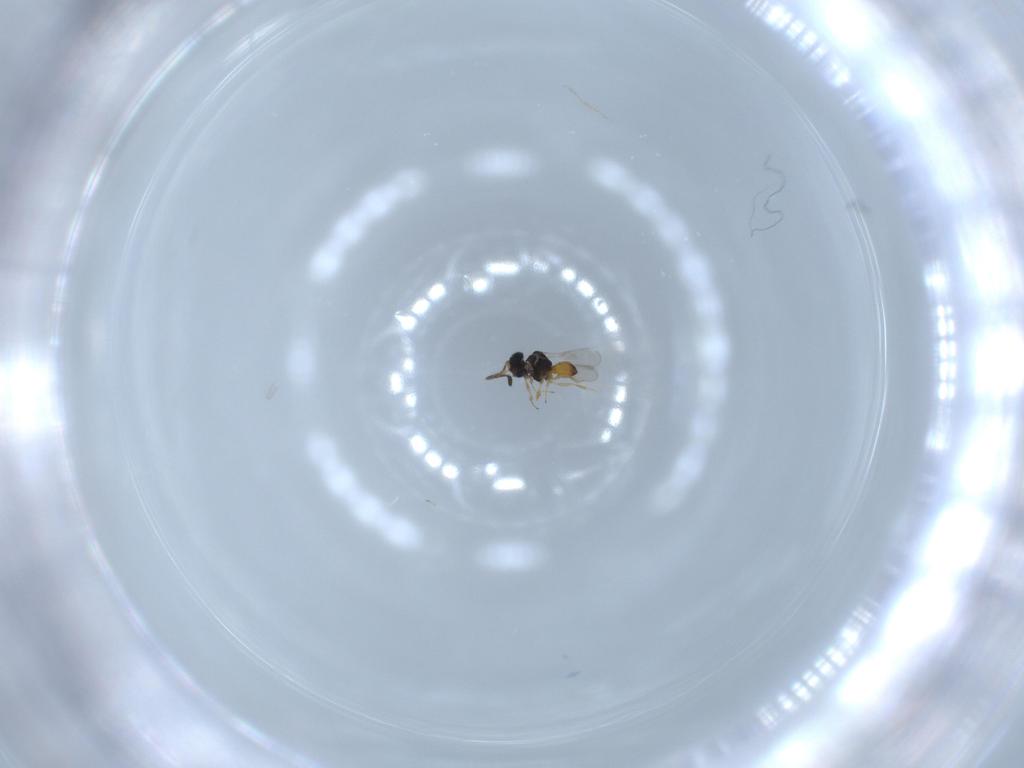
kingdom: Animalia
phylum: Arthropoda
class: Insecta
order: Hymenoptera
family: Scelionidae
